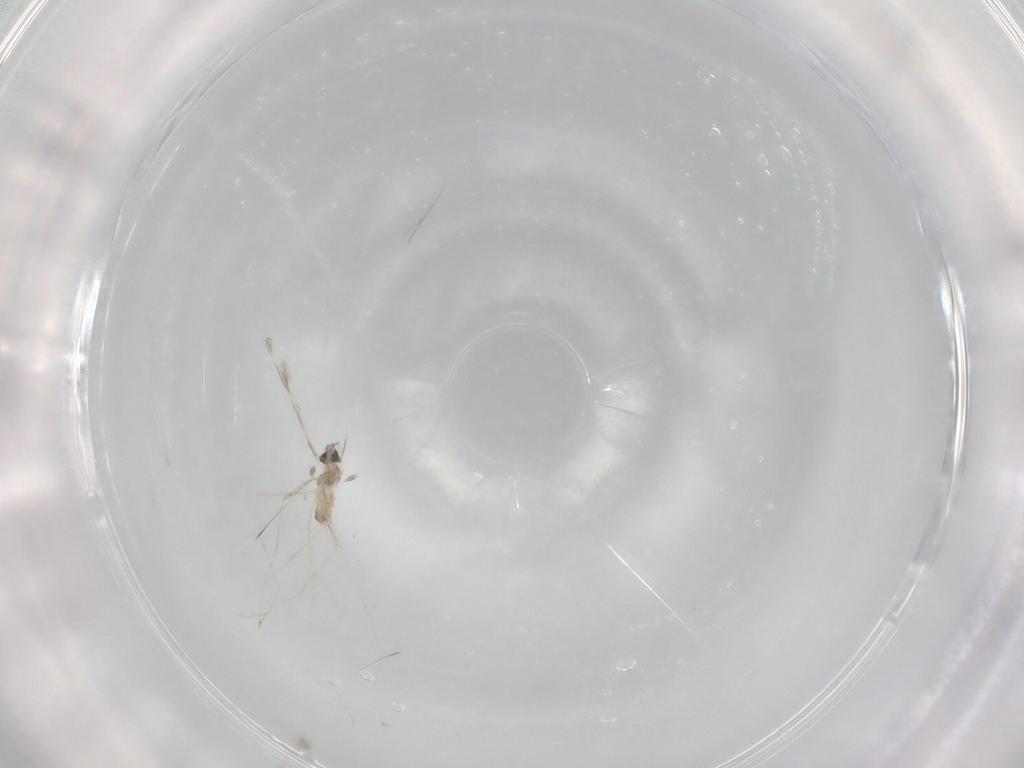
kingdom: Animalia
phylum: Arthropoda
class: Insecta
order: Diptera
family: Cecidomyiidae
